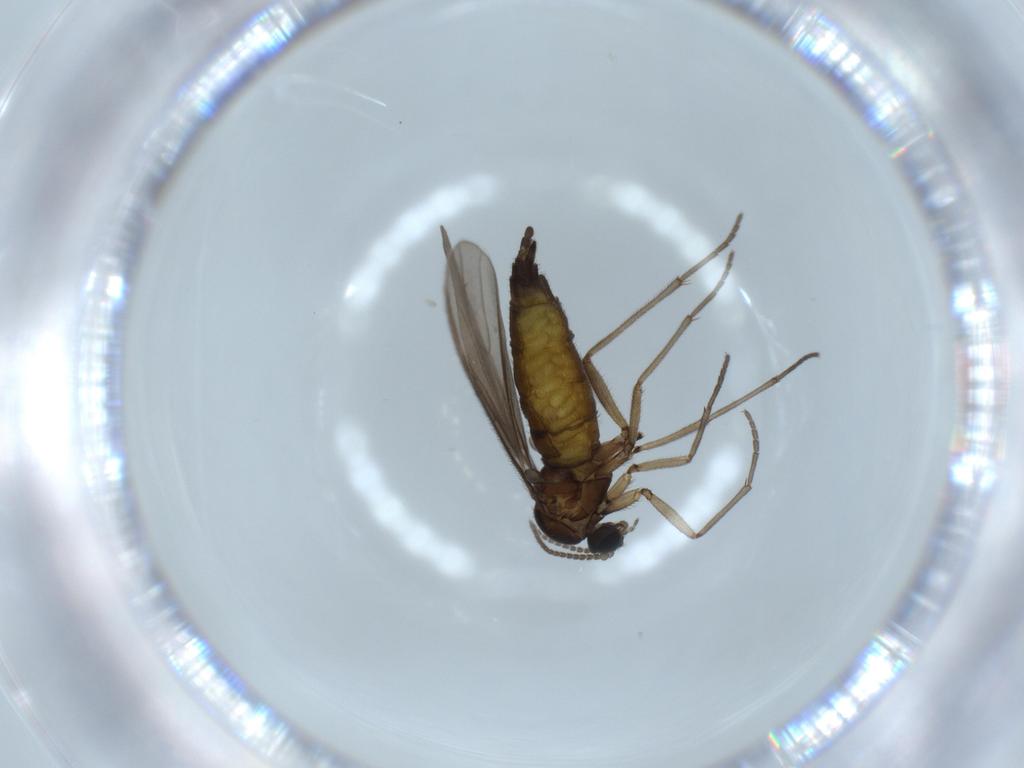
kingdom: Animalia
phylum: Arthropoda
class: Insecta
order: Diptera
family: Sciaridae
